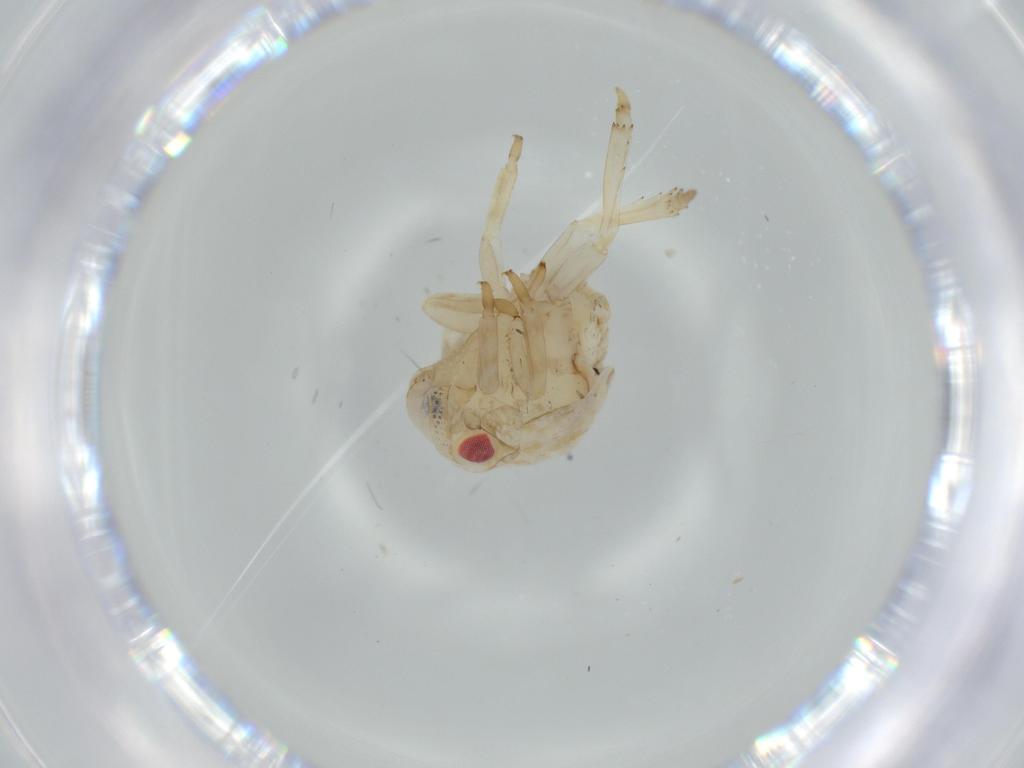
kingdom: Animalia
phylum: Arthropoda
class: Insecta
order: Hemiptera
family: Acanaloniidae
